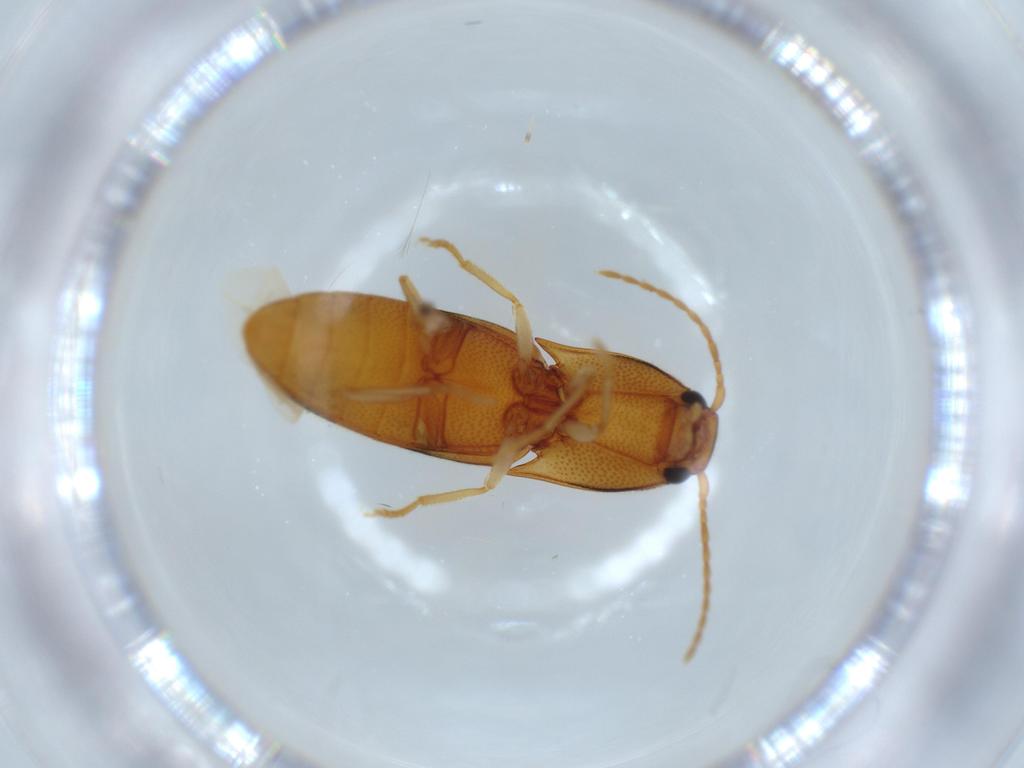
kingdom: Animalia
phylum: Arthropoda
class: Insecta
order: Coleoptera
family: Elateridae
